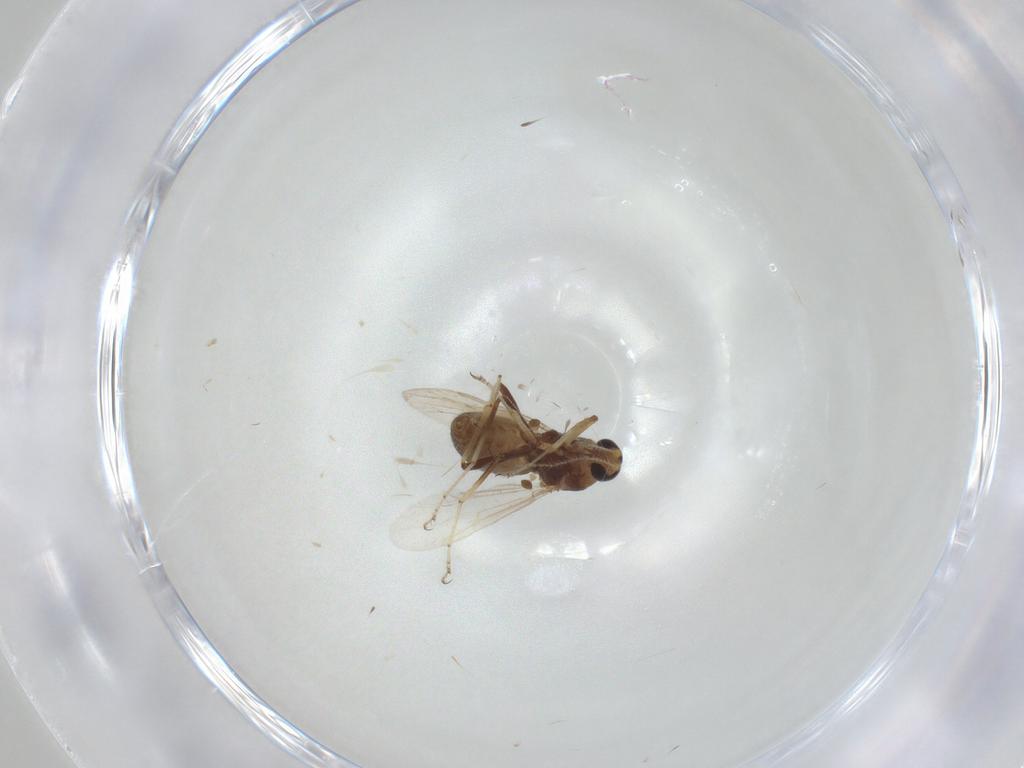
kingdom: Animalia
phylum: Arthropoda
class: Insecta
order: Diptera
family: Ceratopogonidae
